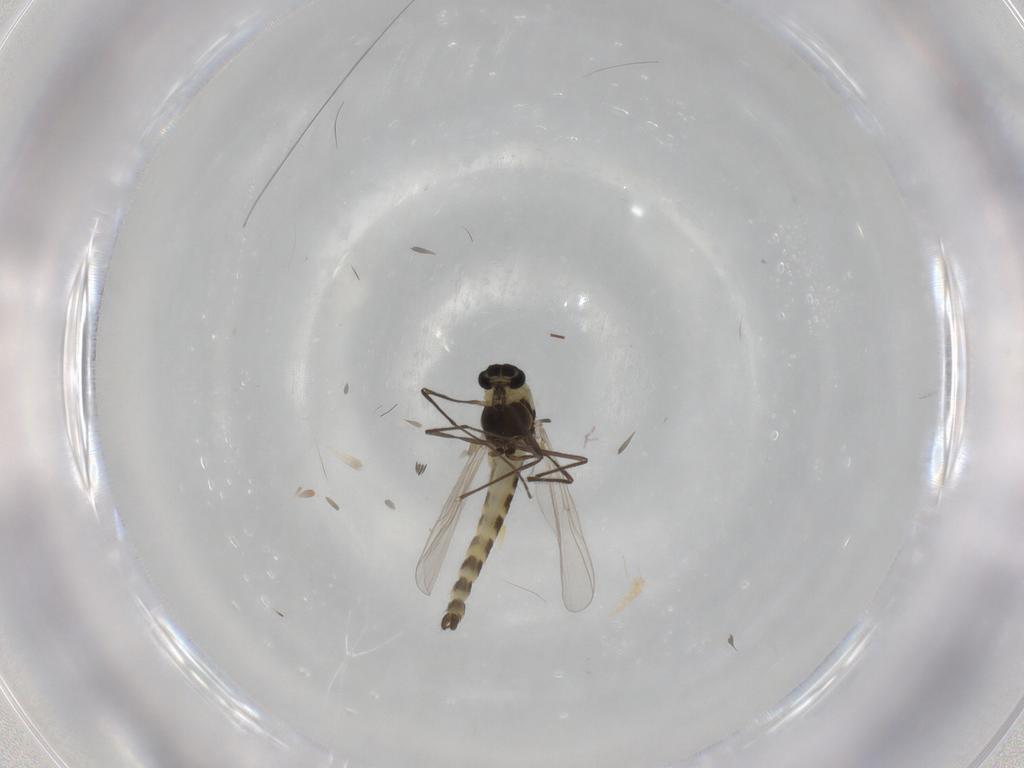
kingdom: Animalia
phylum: Arthropoda
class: Insecta
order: Diptera
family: Chironomidae
